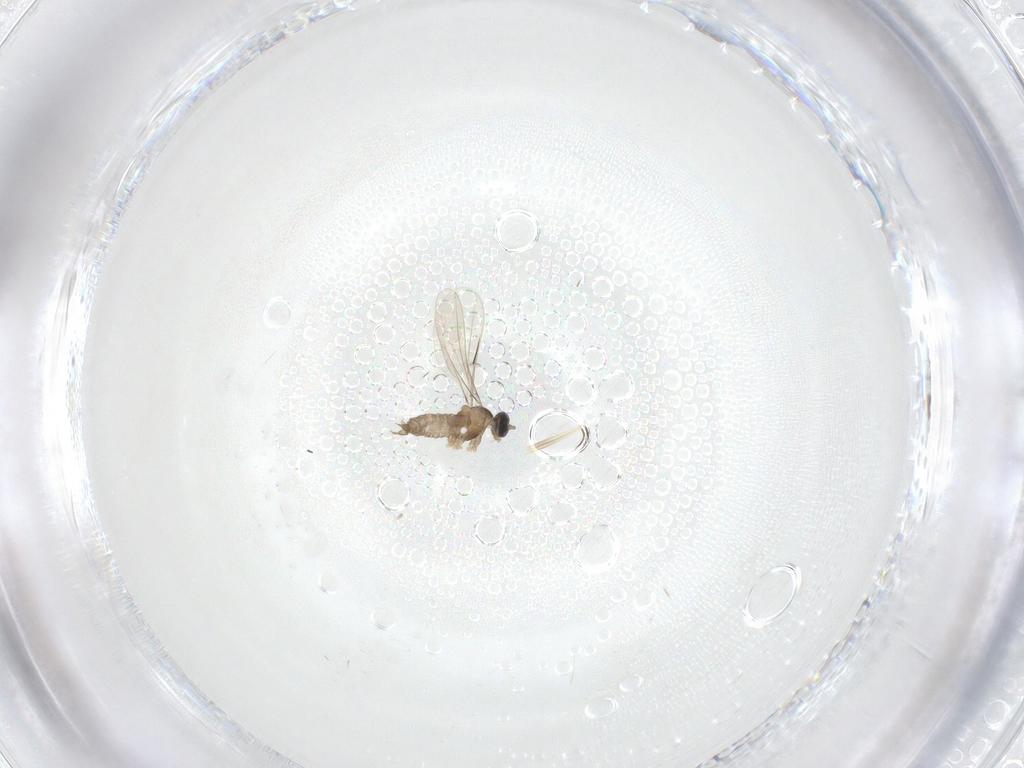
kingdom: Animalia
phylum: Arthropoda
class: Insecta
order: Diptera
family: Cecidomyiidae
